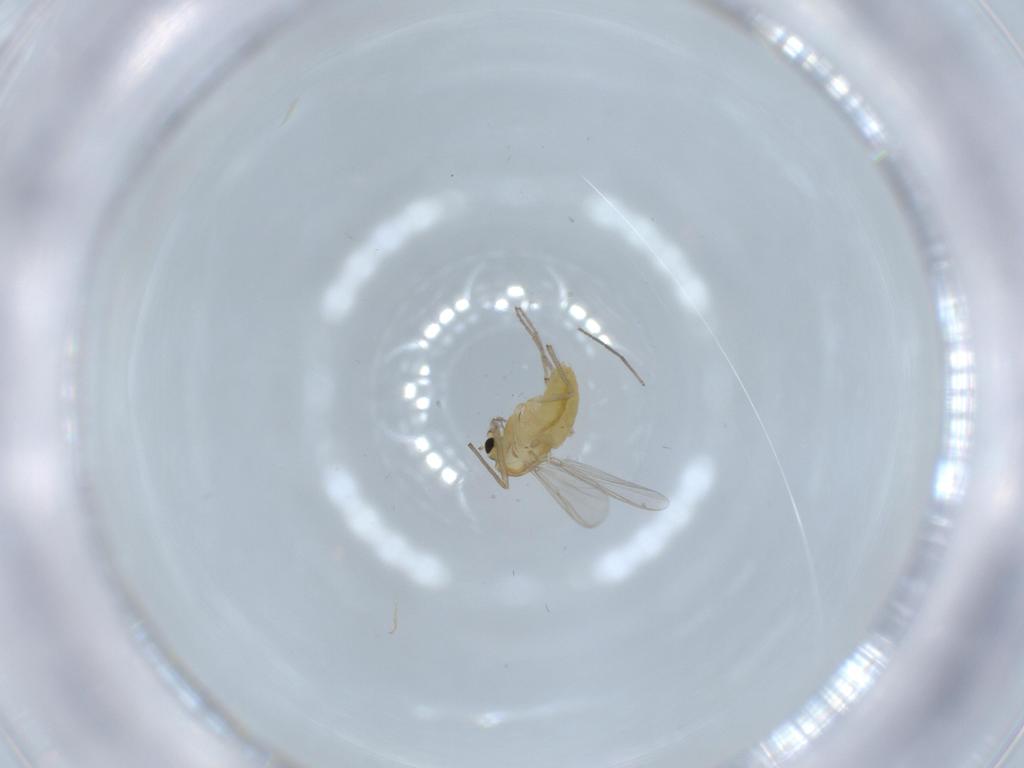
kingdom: Animalia
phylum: Arthropoda
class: Insecta
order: Diptera
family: Chironomidae
